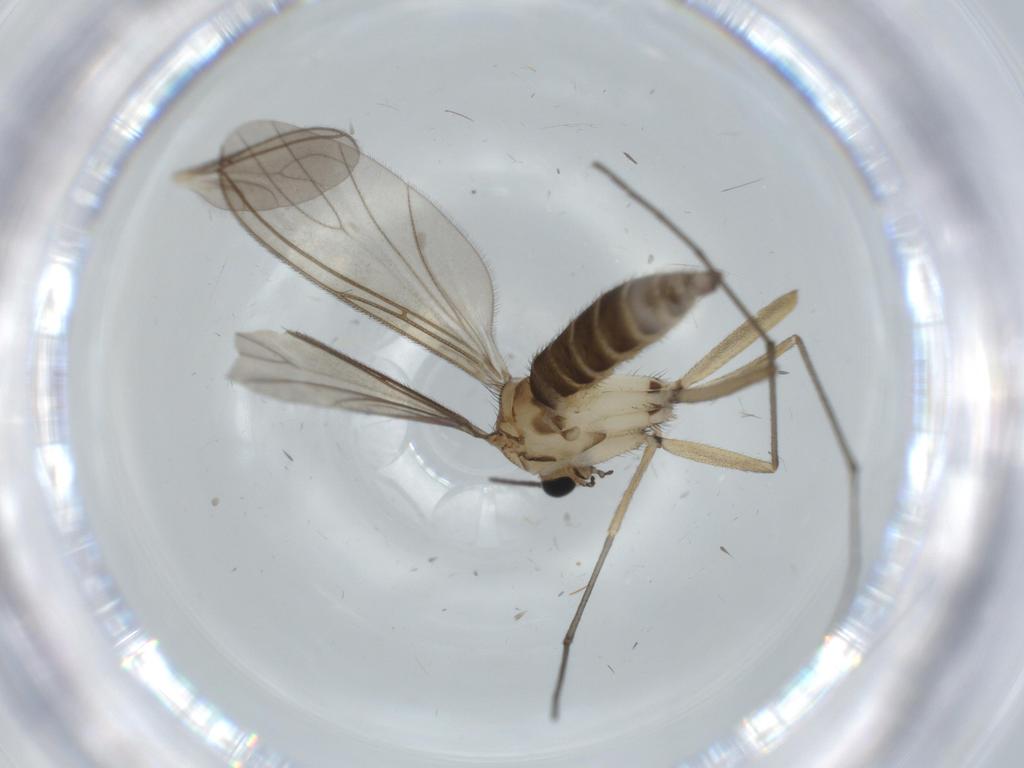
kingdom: Animalia
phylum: Arthropoda
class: Insecta
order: Diptera
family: Sciaridae
